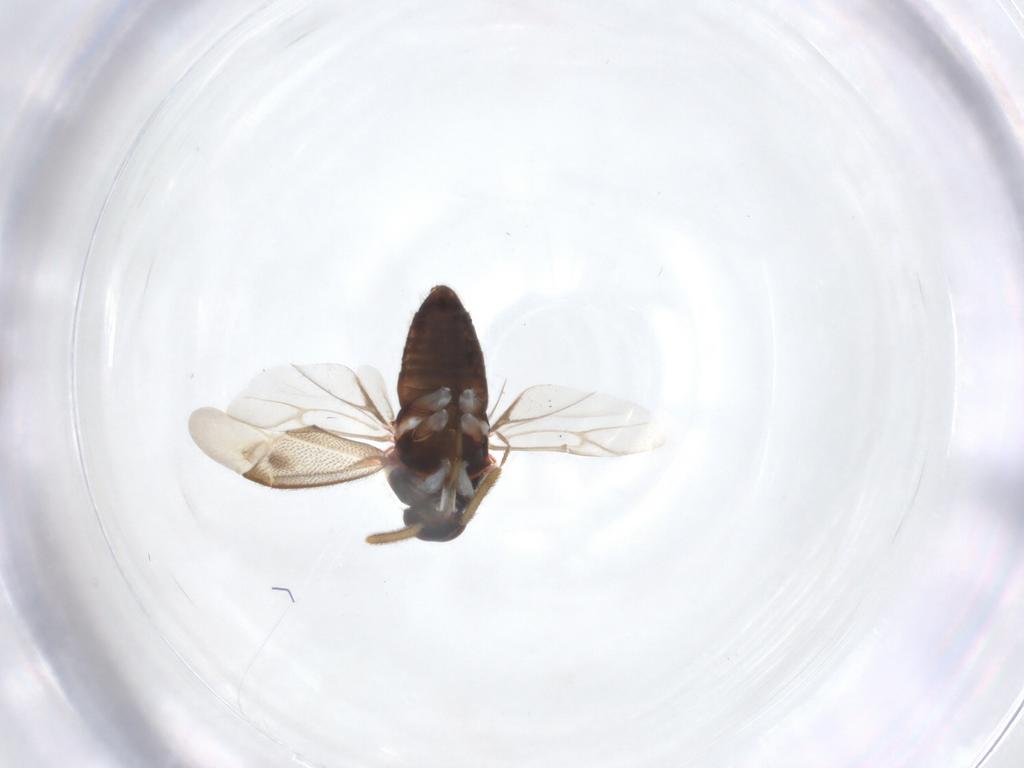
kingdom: Animalia
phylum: Arthropoda
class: Insecta
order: Hemiptera
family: Miridae
